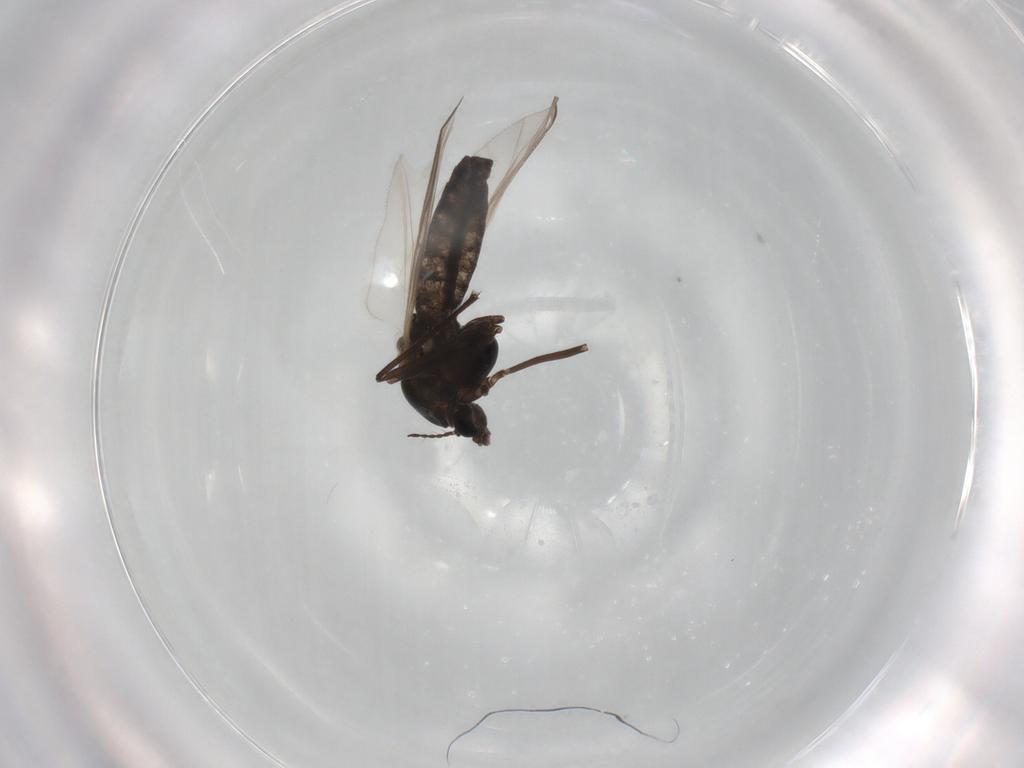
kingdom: Animalia
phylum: Arthropoda
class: Insecta
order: Diptera
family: Chironomidae
